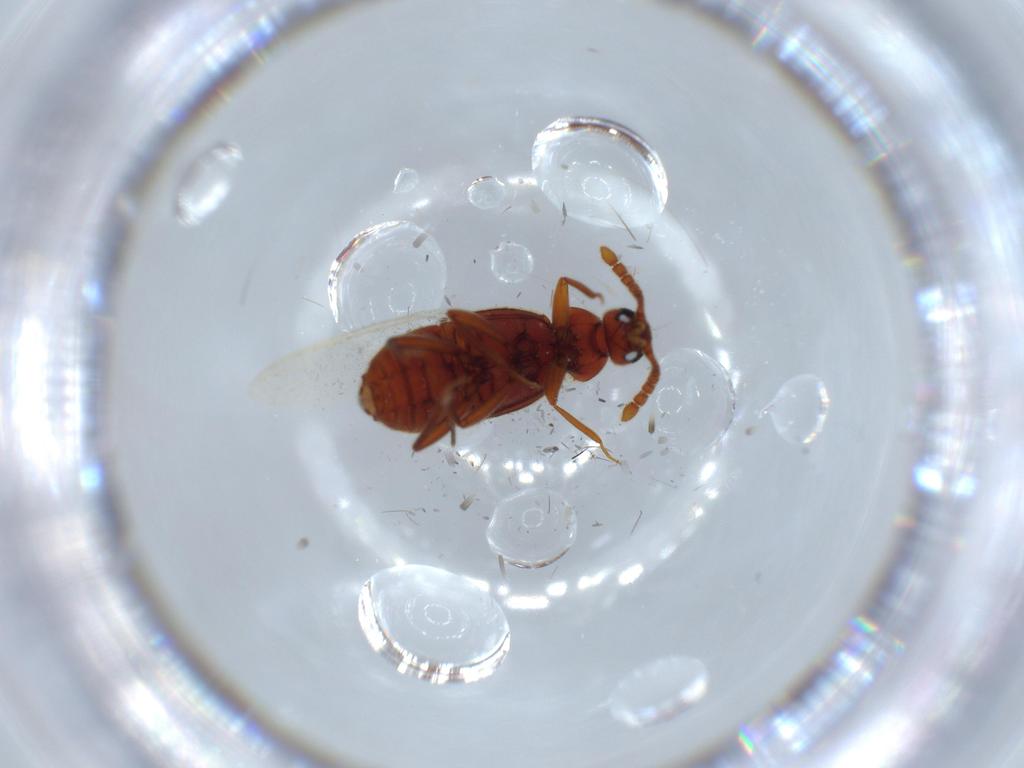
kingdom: Animalia
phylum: Arthropoda
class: Insecta
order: Coleoptera
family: Staphylinidae
